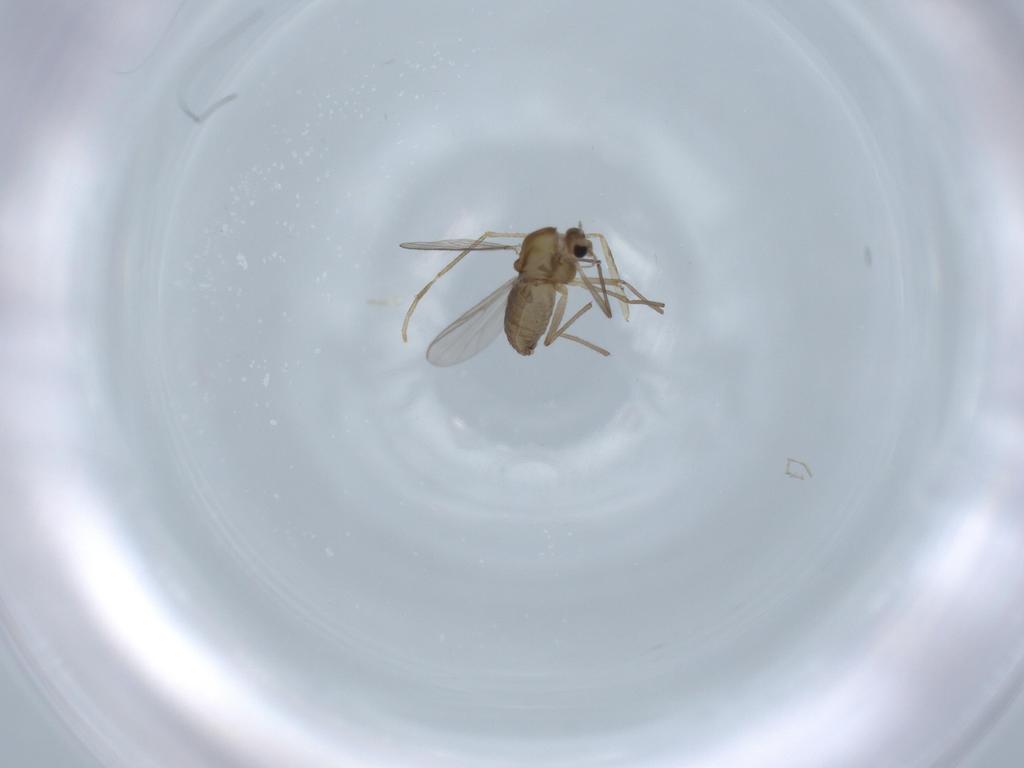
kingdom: Animalia
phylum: Arthropoda
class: Insecta
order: Diptera
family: Chironomidae
